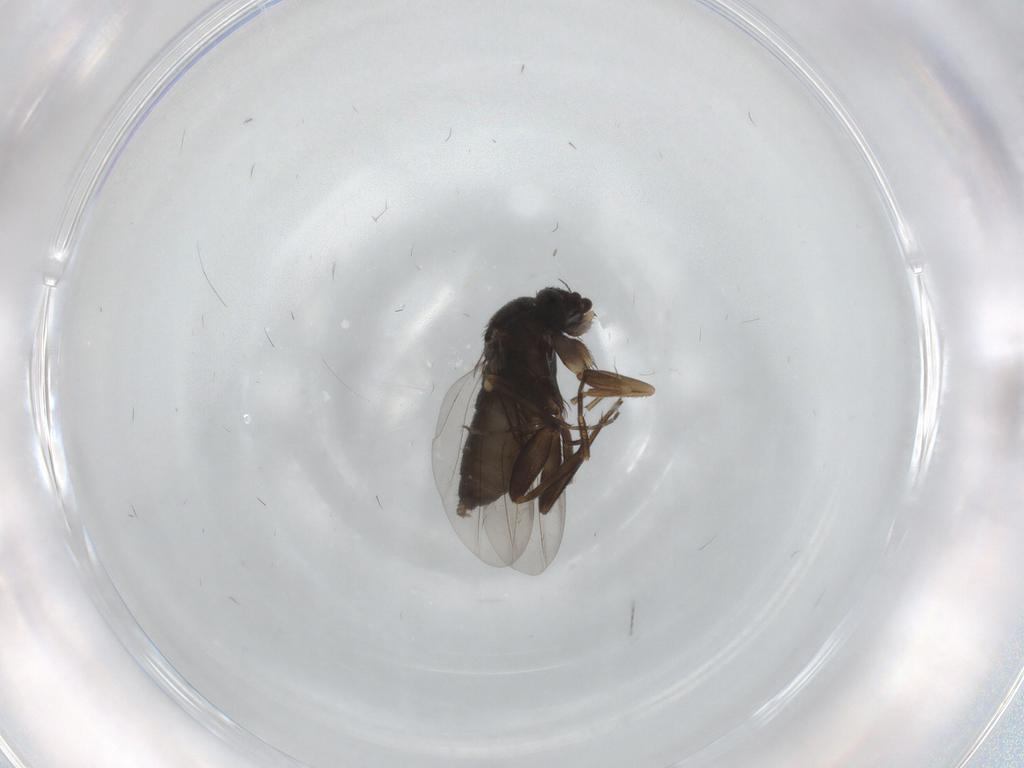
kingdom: Animalia
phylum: Arthropoda
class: Insecta
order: Diptera
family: Phoridae
